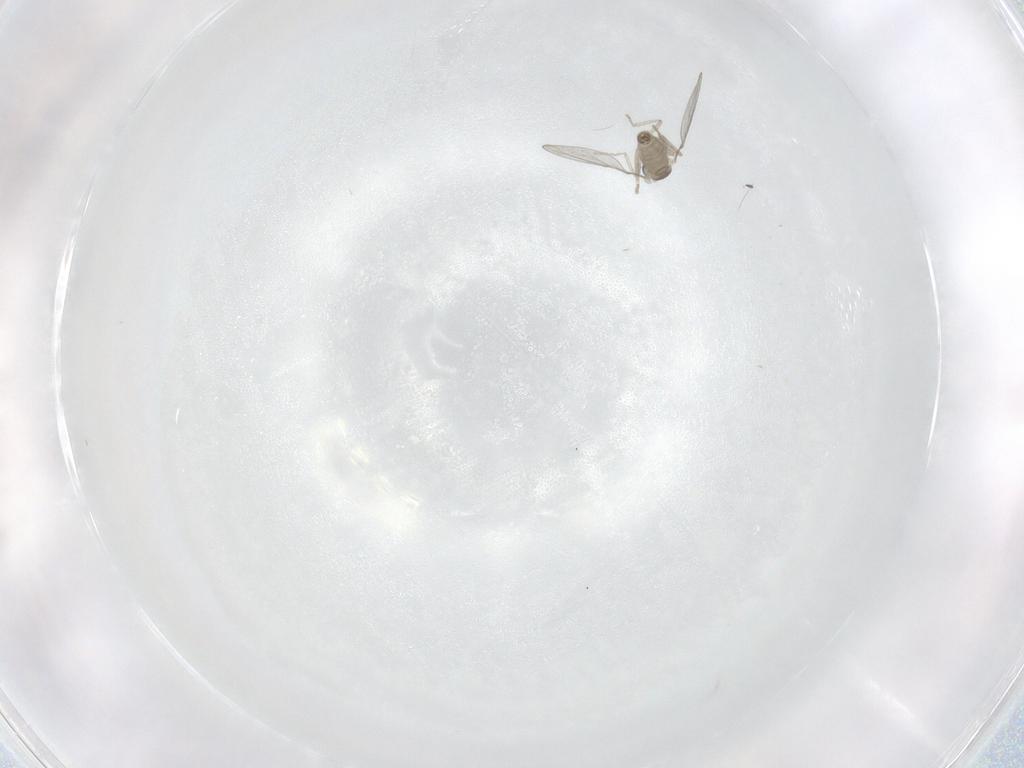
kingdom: Animalia
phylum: Arthropoda
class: Insecta
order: Diptera
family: Cecidomyiidae
